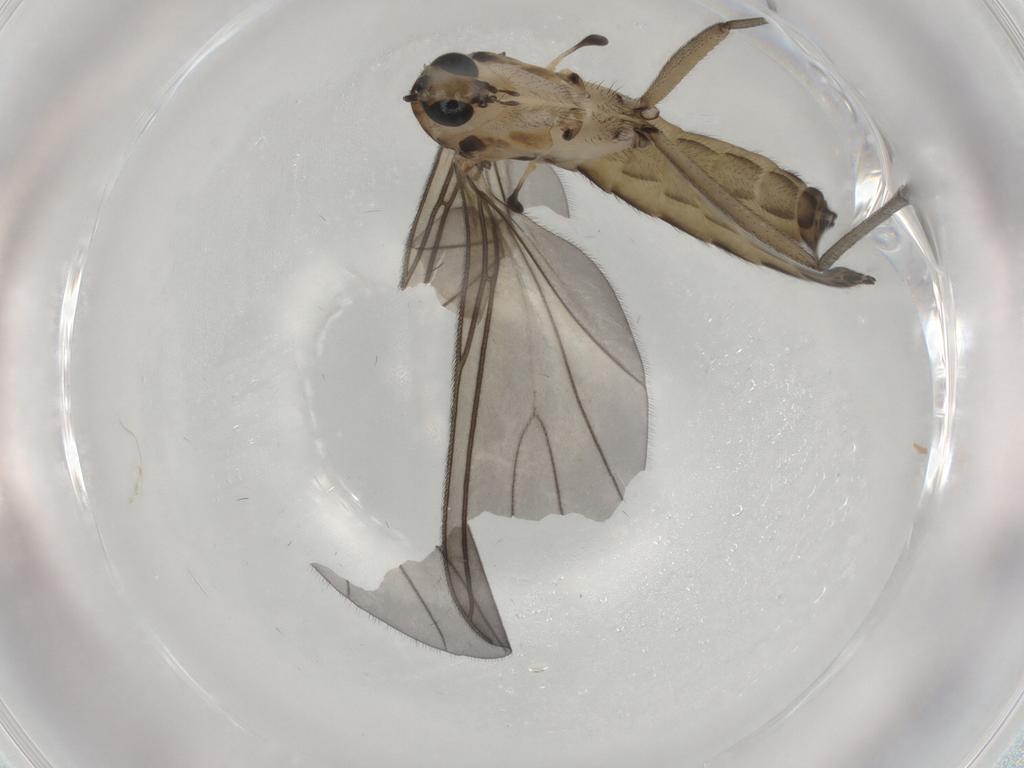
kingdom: Animalia
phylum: Arthropoda
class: Insecta
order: Diptera
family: Sciaridae
